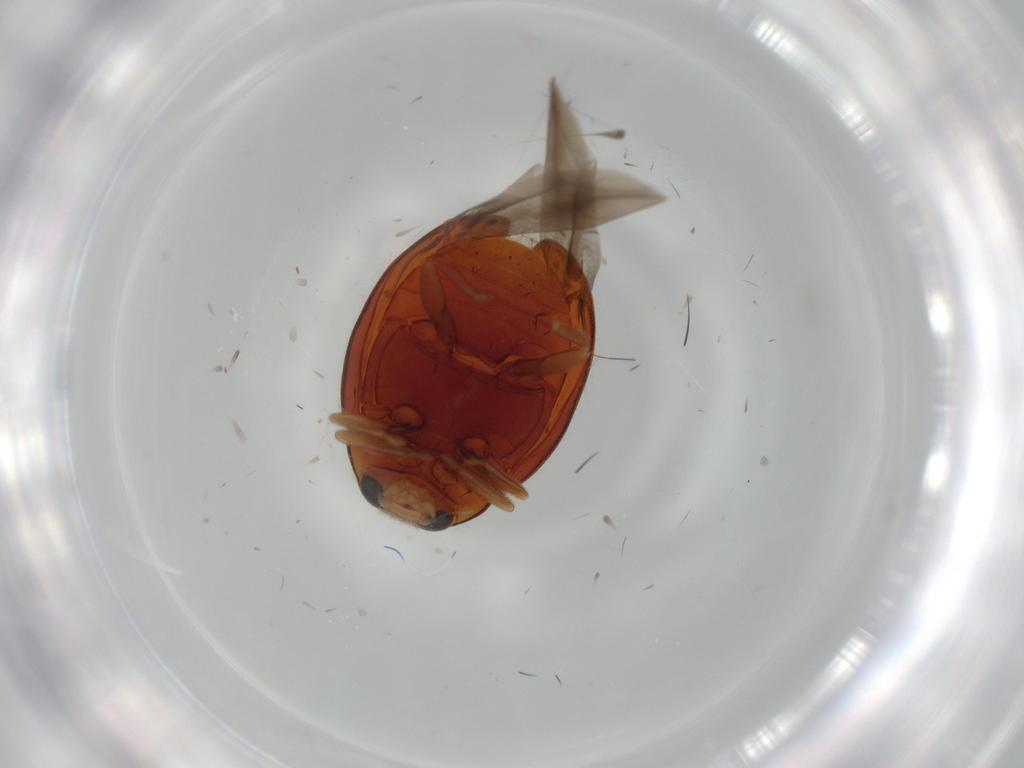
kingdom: Animalia
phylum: Arthropoda
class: Insecta
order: Coleoptera
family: Coccinellidae
